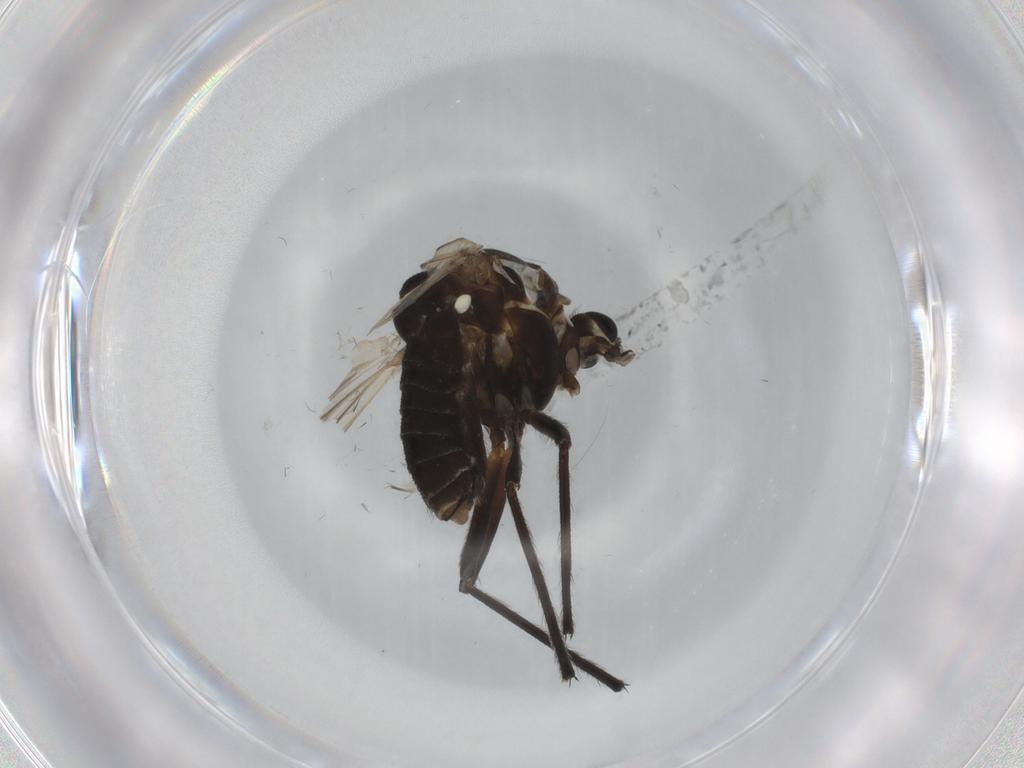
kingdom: Animalia
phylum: Arthropoda
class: Insecta
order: Diptera
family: Chironomidae
